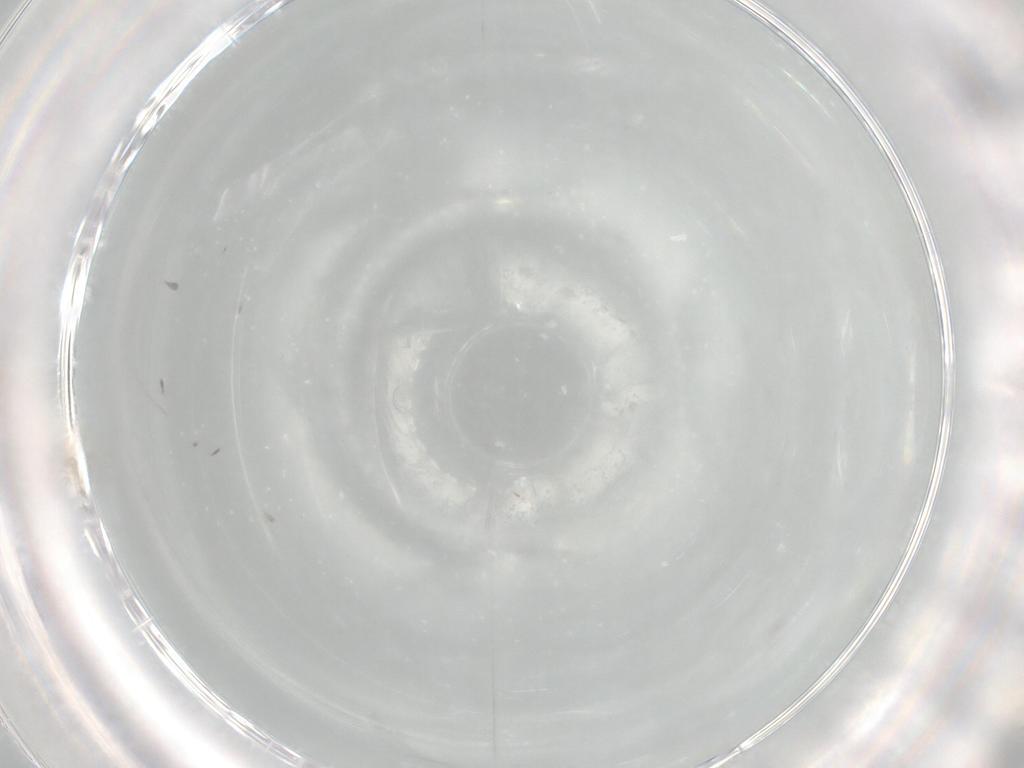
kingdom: Animalia
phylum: Arthropoda
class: Insecta
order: Diptera
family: Cecidomyiidae
